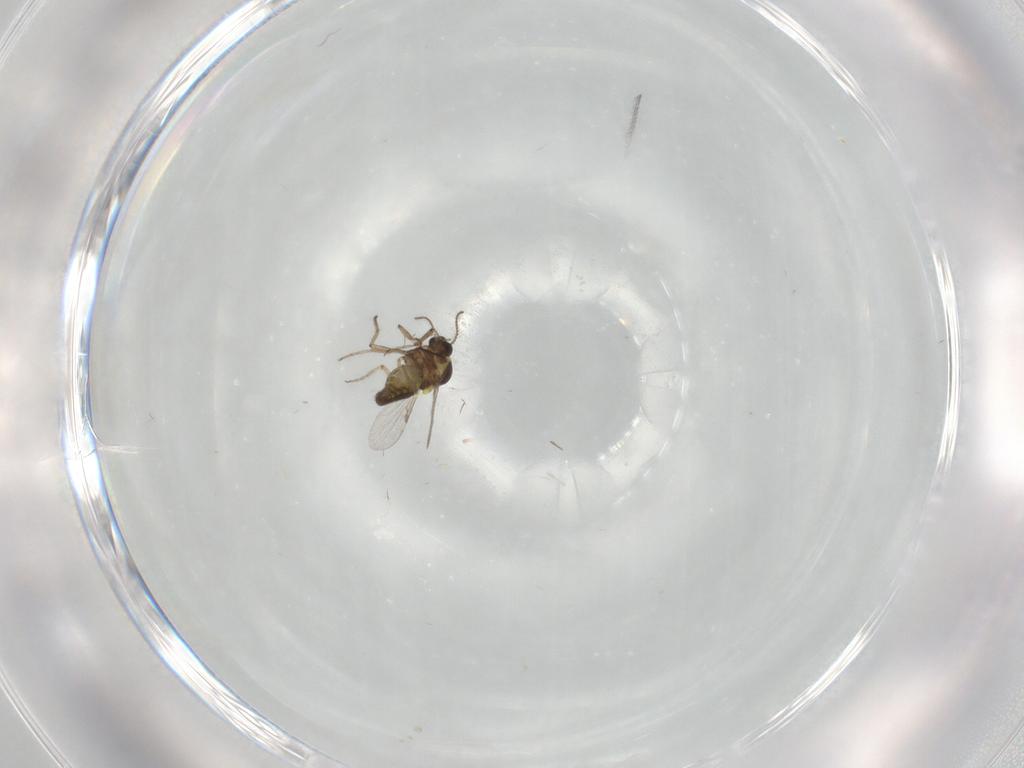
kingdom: Animalia
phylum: Arthropoda
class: Insecta
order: Diptera
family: Ceratopogonidae
